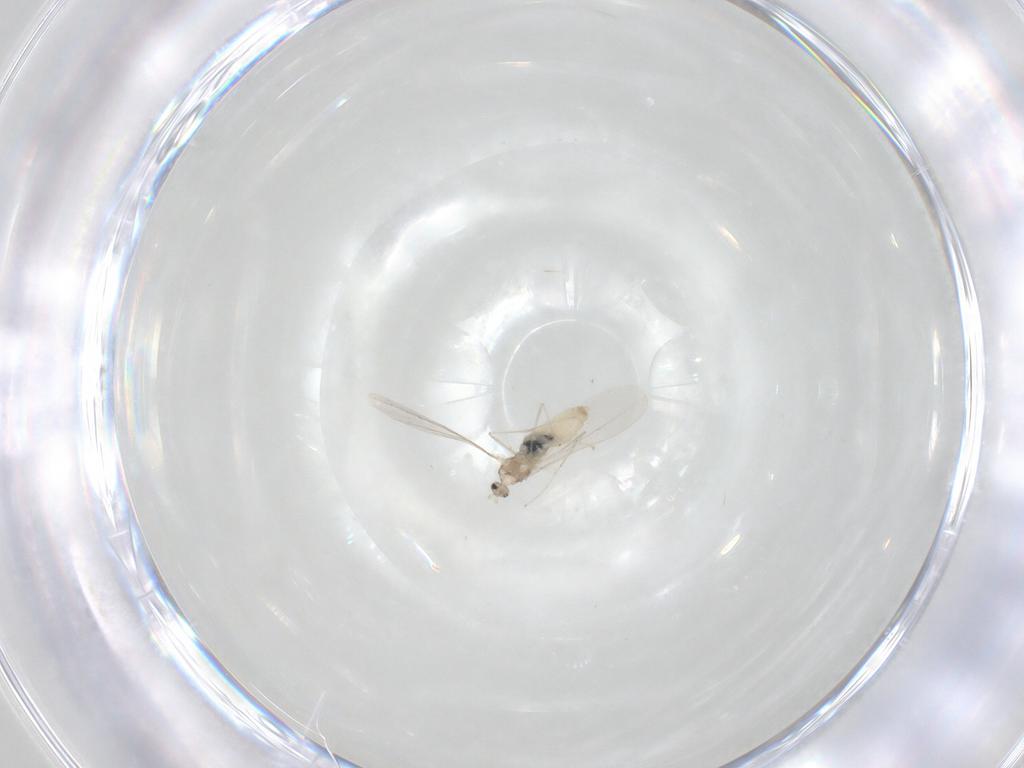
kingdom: Animalia
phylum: Arthropoda
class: Insecta
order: Diptera
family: Cecidomyiidae
